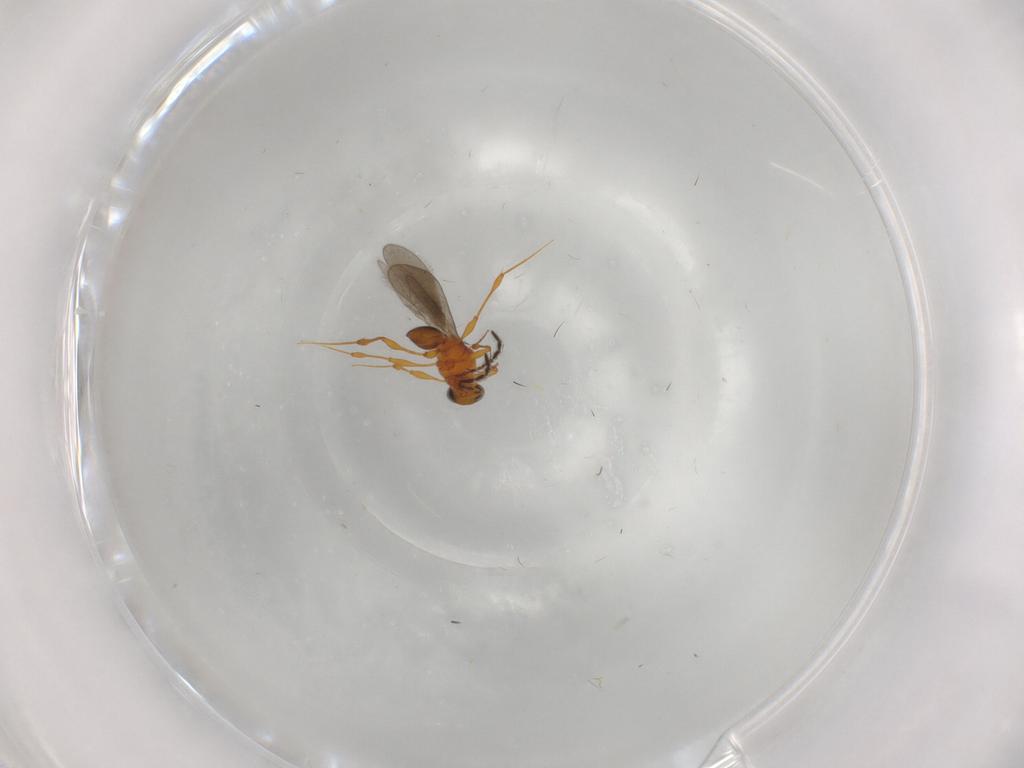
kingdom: Animalia
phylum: Arthropoda
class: Insecta
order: Hymenoptera
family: Platygastridae
